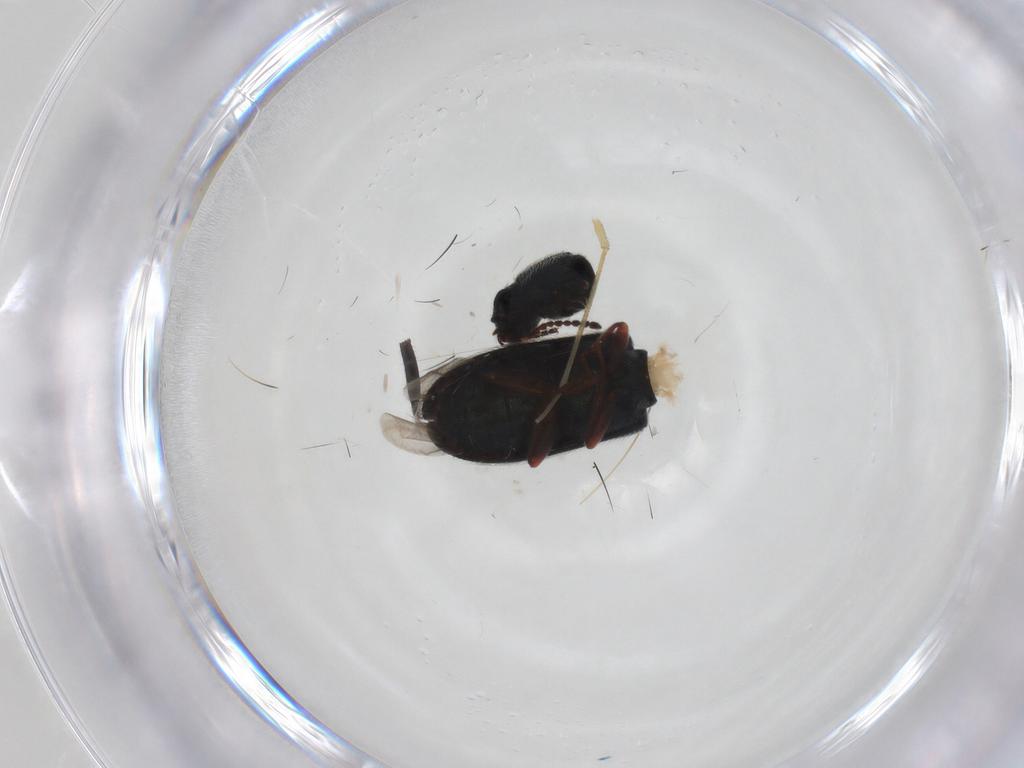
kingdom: Animalia
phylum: Arthropoda
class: Insecta
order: Coleoptera
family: Melyridae
